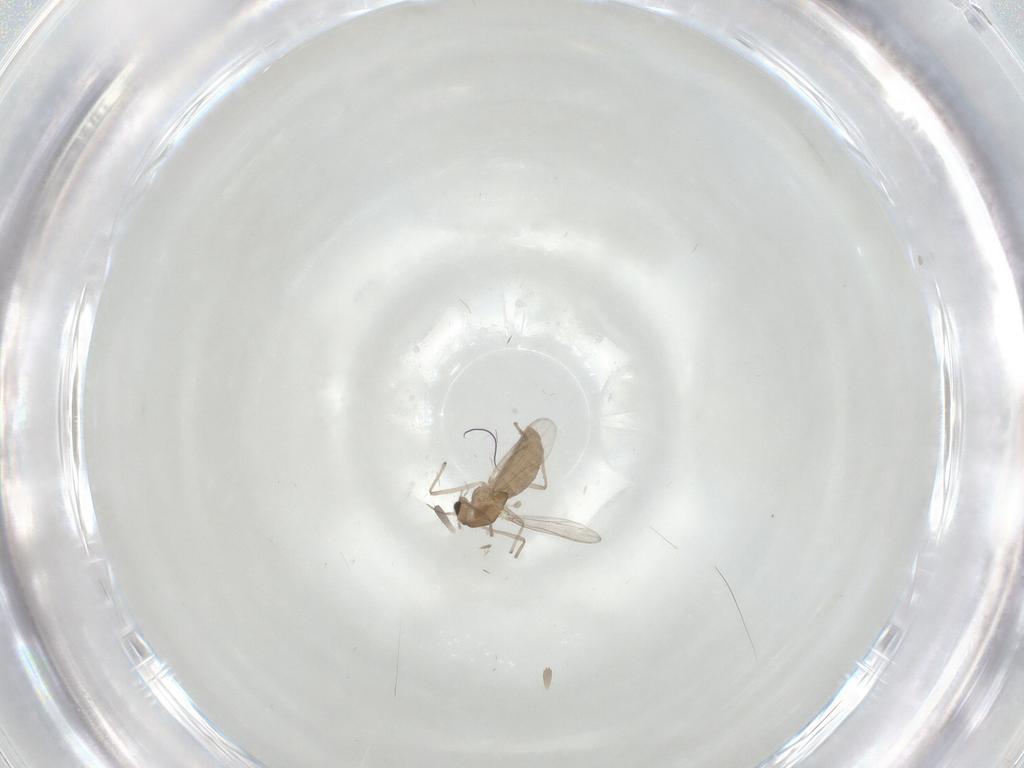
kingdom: Animalia
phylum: Arthropoda
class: Insecta
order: Diptera
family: Chironomidae
